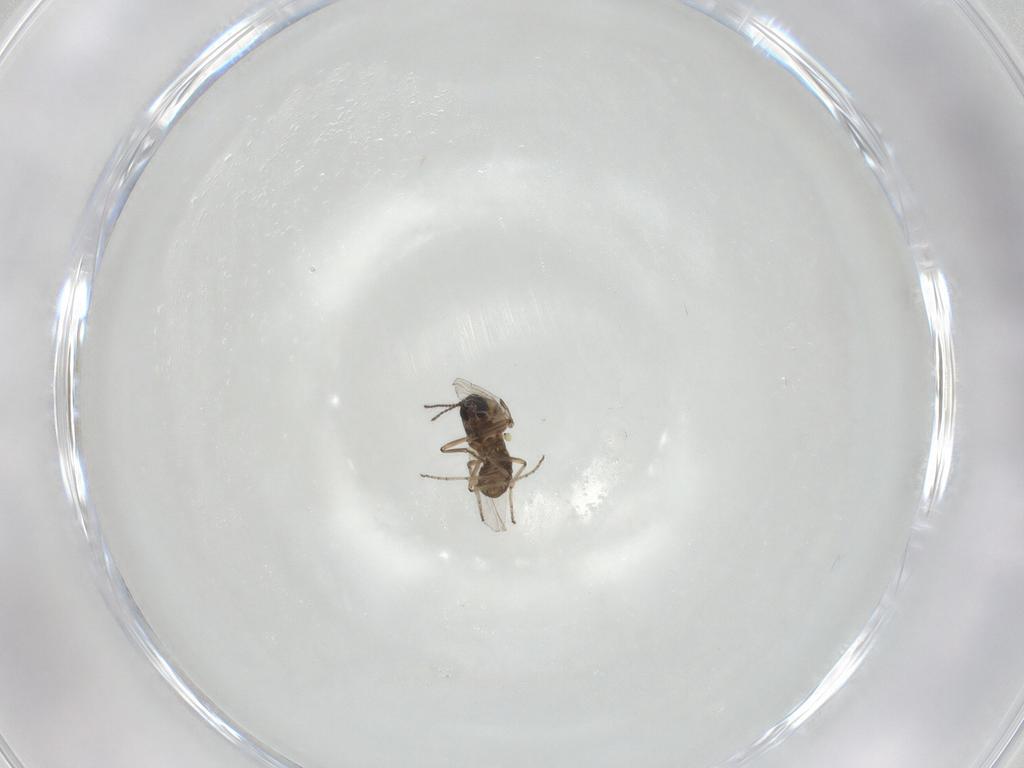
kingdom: Animalia
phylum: Arthropoda
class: Insecta
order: Diptera
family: Ceratopogonidae
